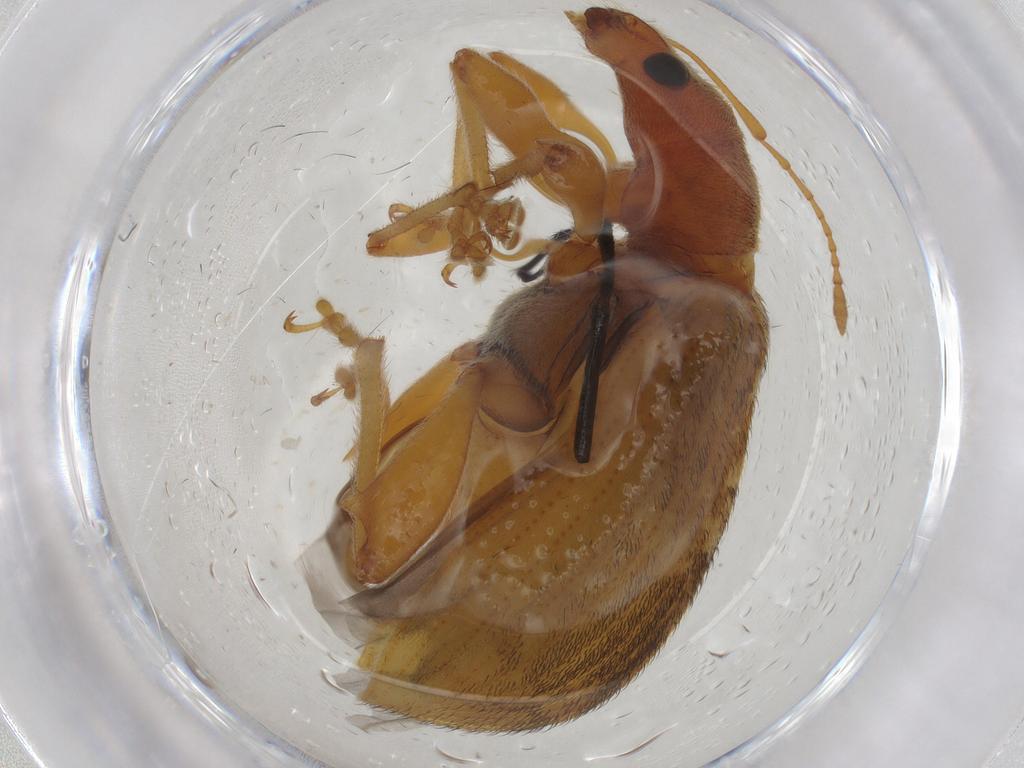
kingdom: Animalia
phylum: Arthropoda
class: Insecta
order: Coleoptera
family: Curculionidae
